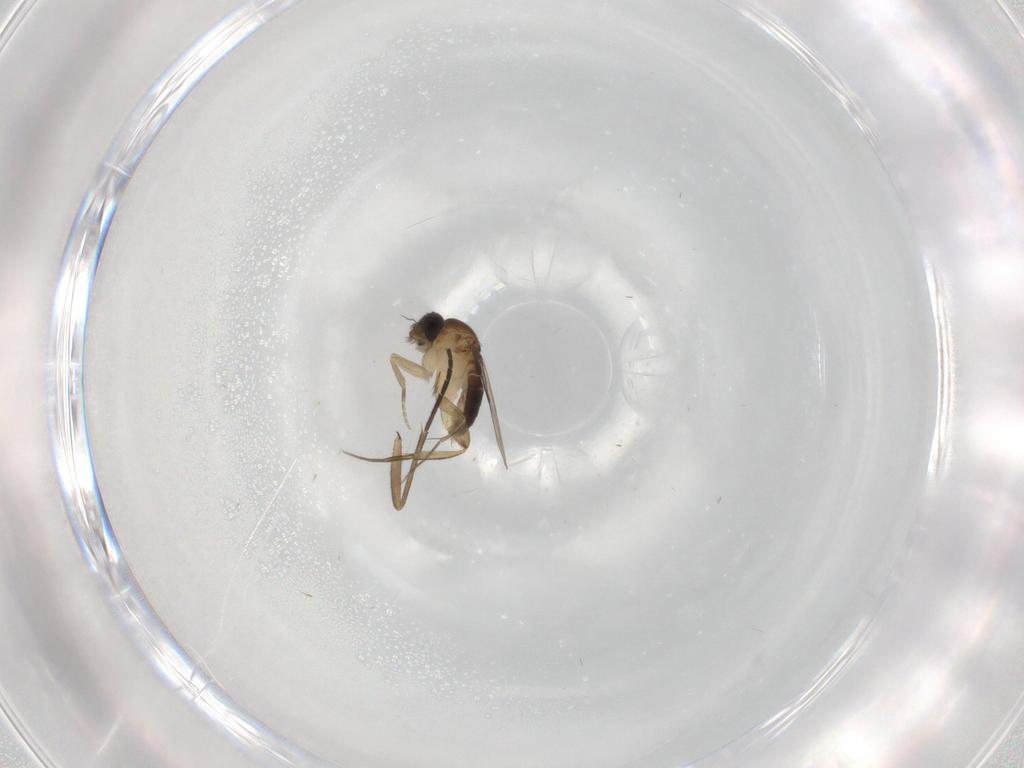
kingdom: Animalia
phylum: Arthropoda
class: Insecta
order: Diptera
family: Phoridae
